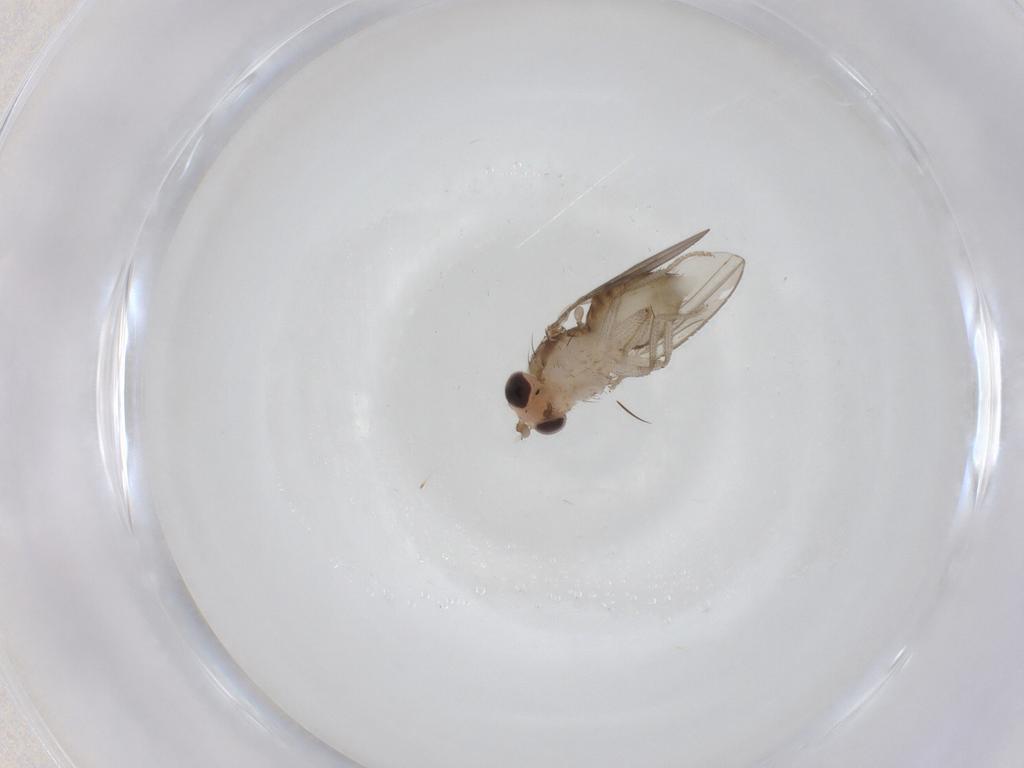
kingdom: Animalia
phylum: Arthropoda
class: Insecta
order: Diptera
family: Drosophilidae
